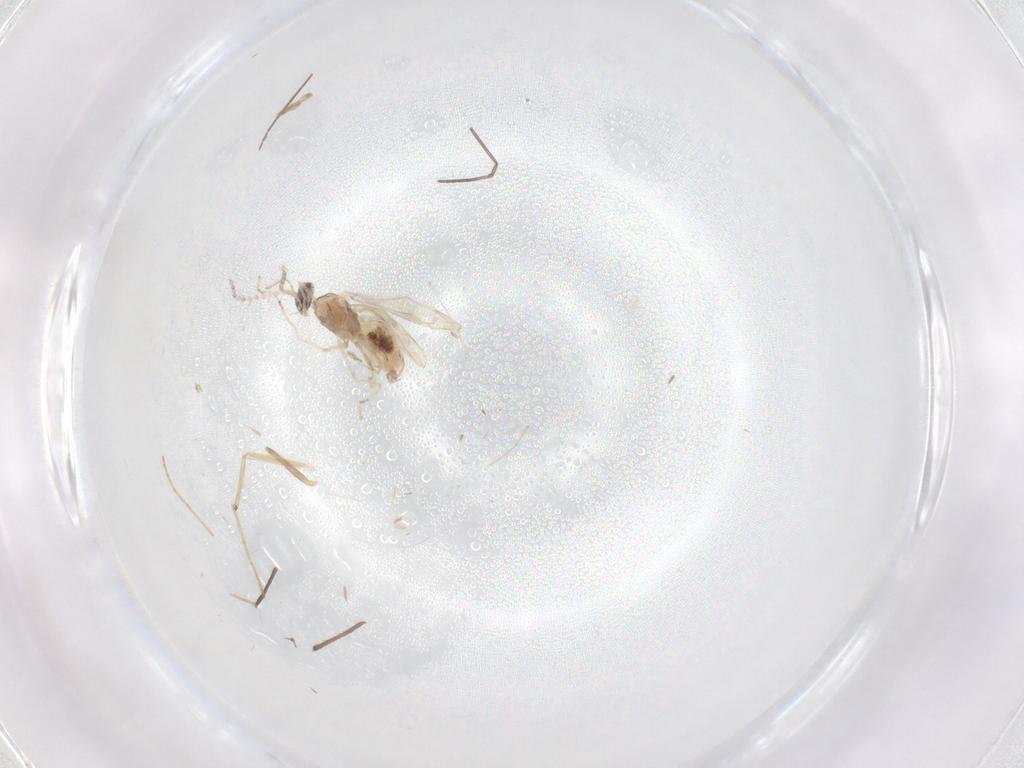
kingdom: Animalia
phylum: Arthropoda
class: Insecta
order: Diptera
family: Cecidomyiidae
